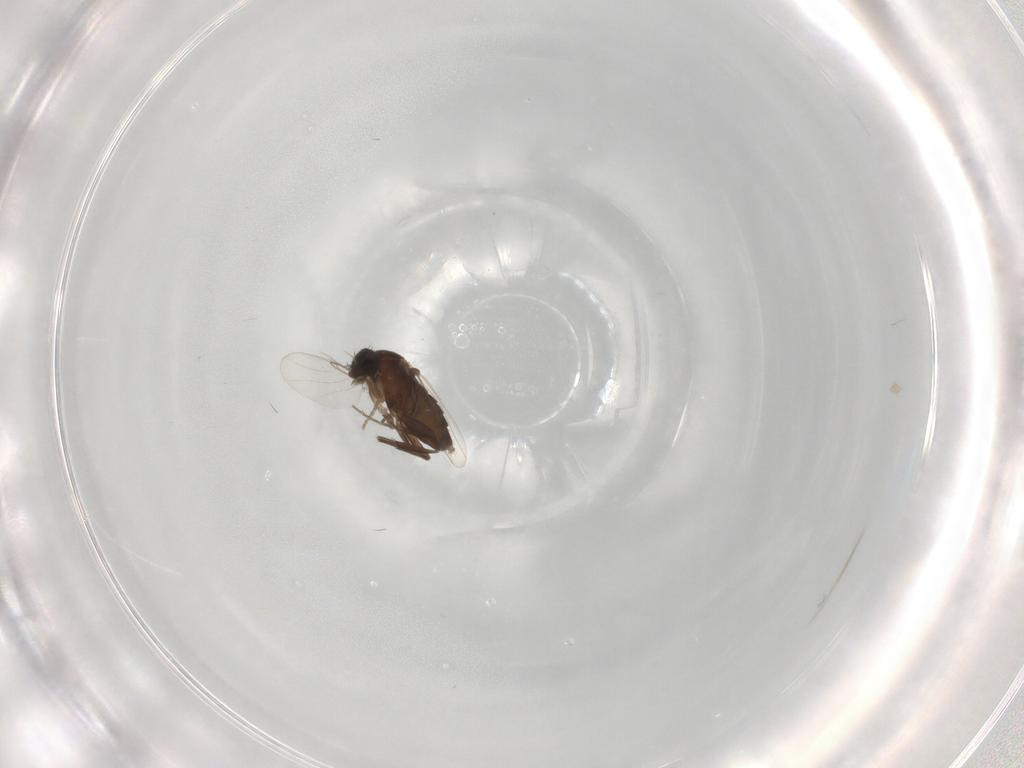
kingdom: Animalia
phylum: Arthropoda
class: Insecta
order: Diptera
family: Phoridae
